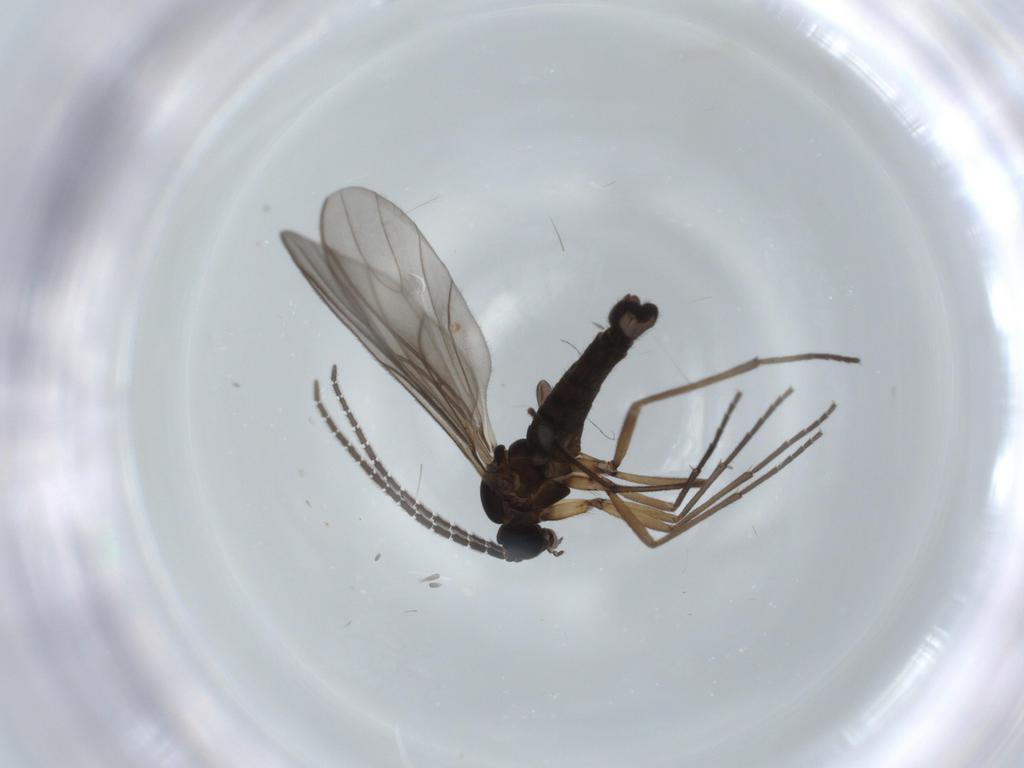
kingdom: Animalia
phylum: Arthropoda
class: Insecta
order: Diptera
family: Sciaridae
